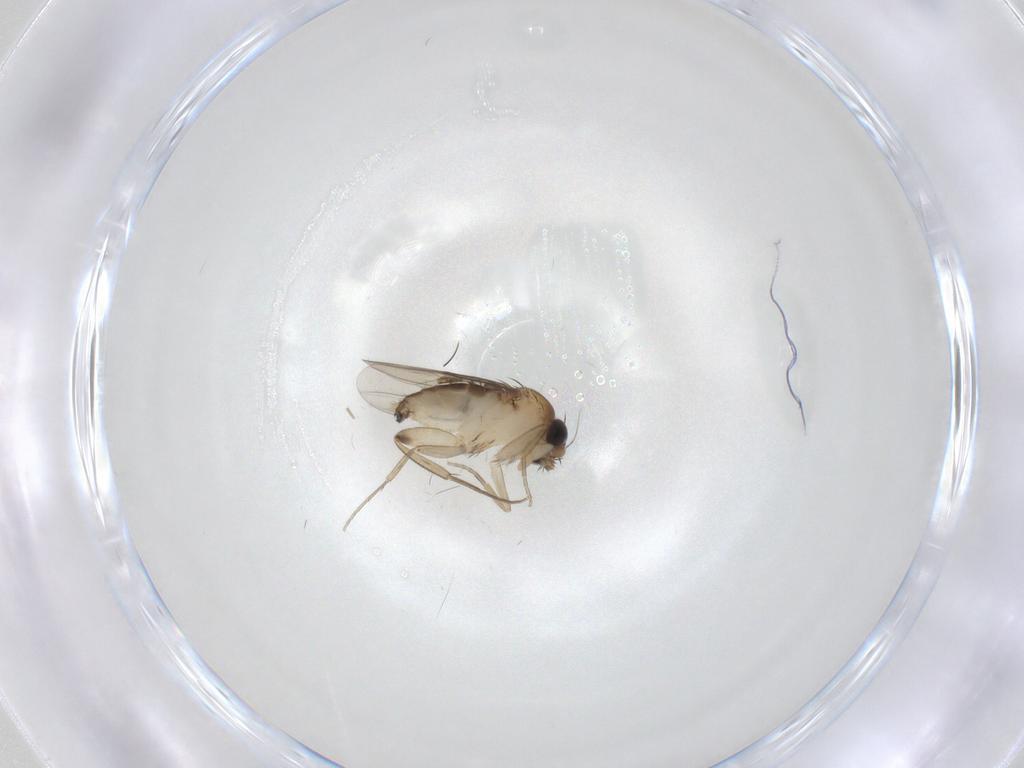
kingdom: Animalia
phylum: Arthropoda
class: Insecta
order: Diptera
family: Phoridae
